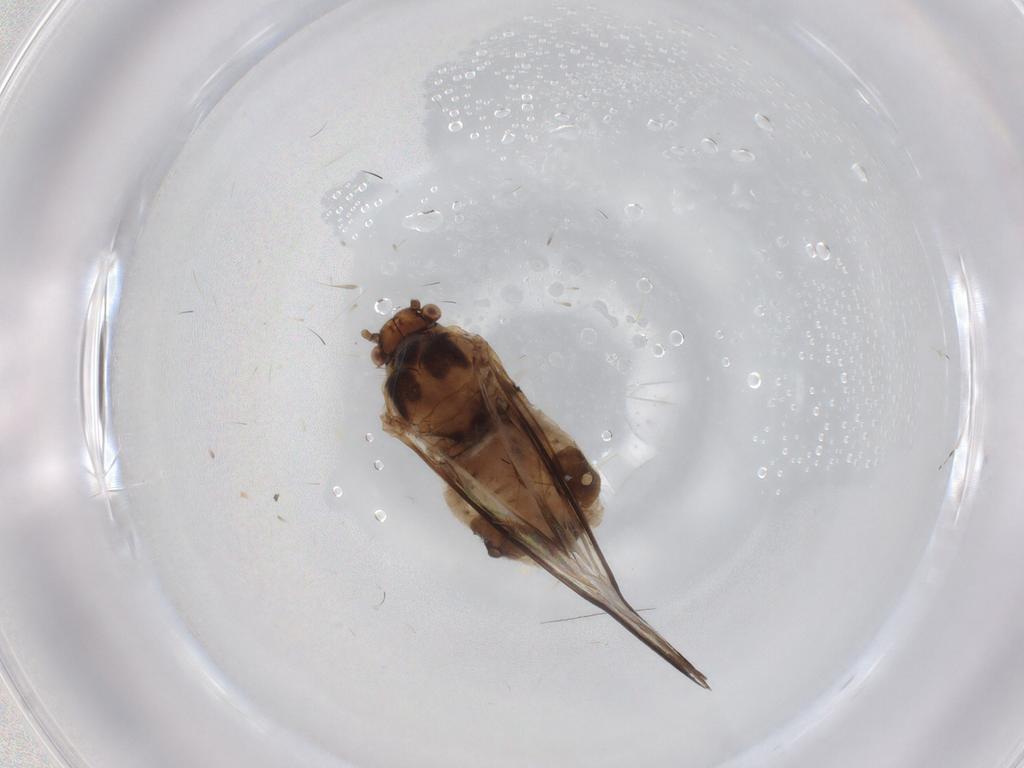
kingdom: Animalia
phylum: Arthropoda
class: Insecta
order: Hemiptera
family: Aphididae
